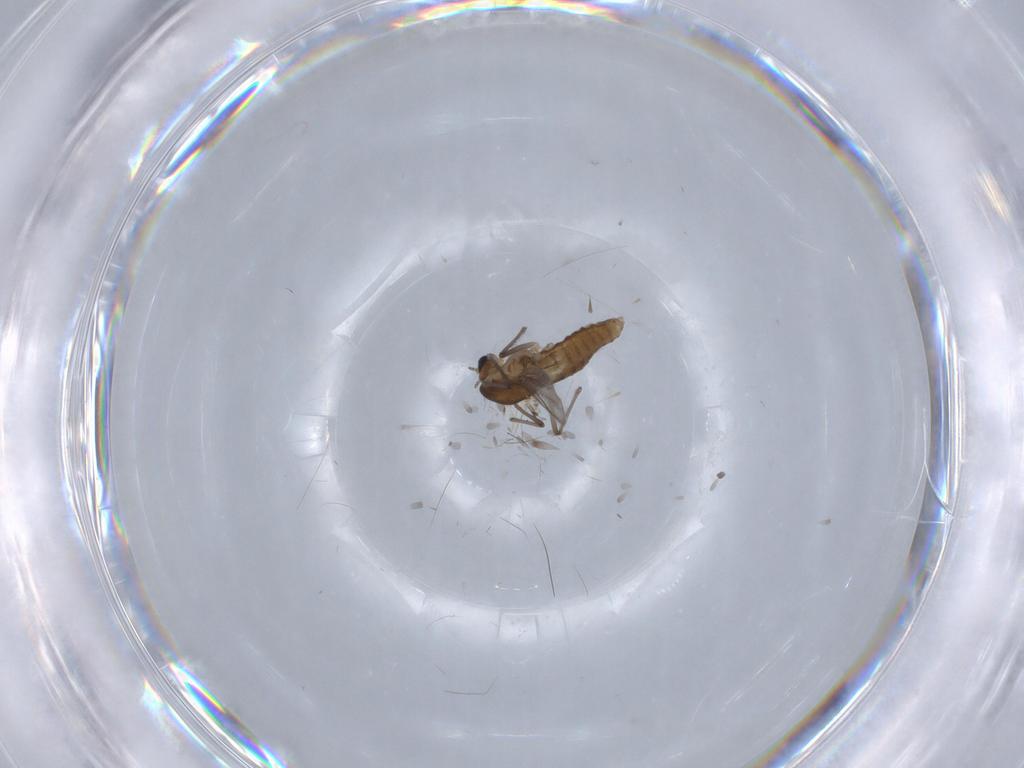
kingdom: Animalia
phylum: Arthropoda
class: Insecta
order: Diptera
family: Chironomidae
